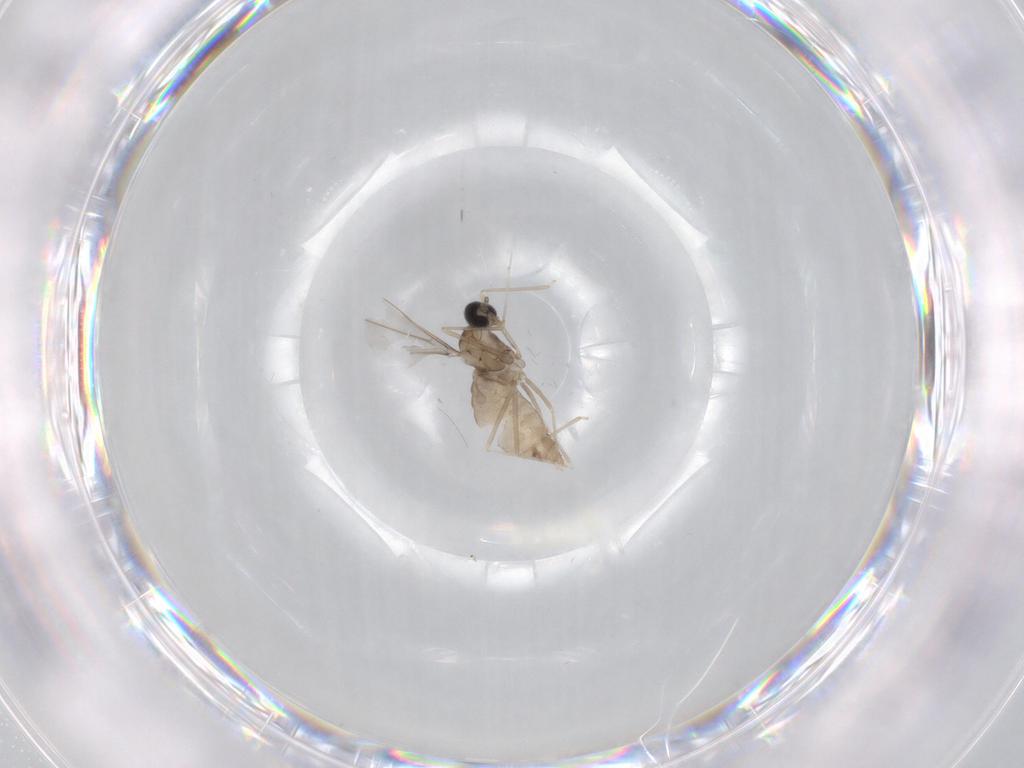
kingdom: Animalia
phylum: Arthropoda
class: Insecta
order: Diptera
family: Cecidomyiidae
